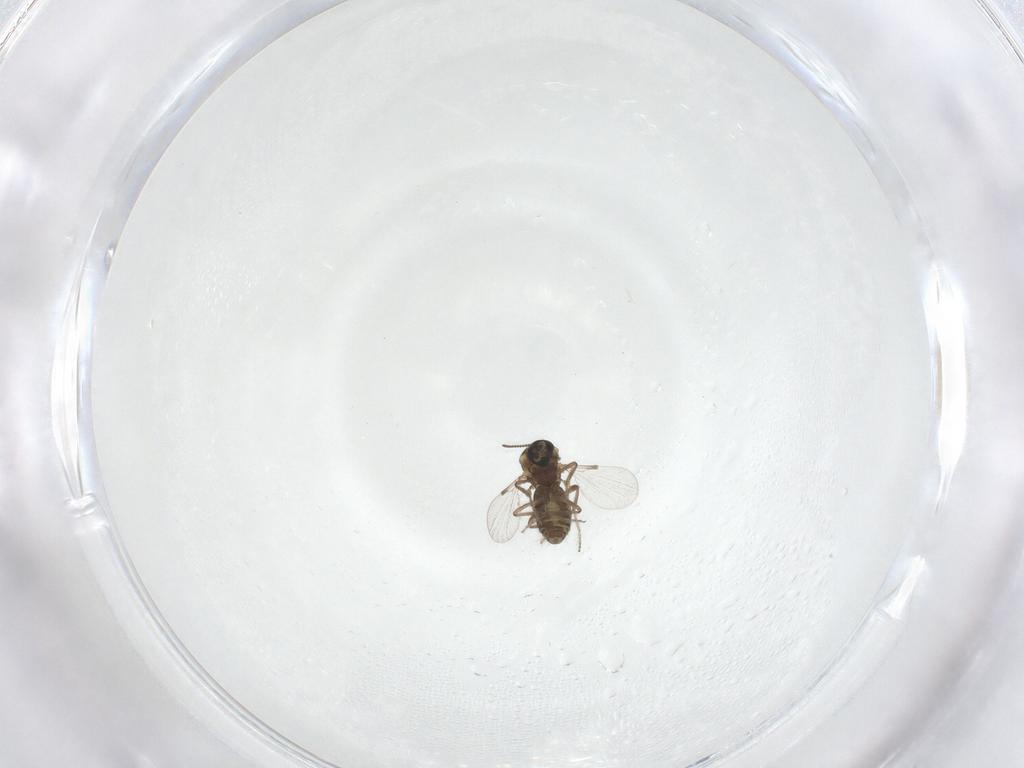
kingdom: Animalia
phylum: Arthropoda
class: Insecta
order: Diptera
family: Ceratopogonidae
